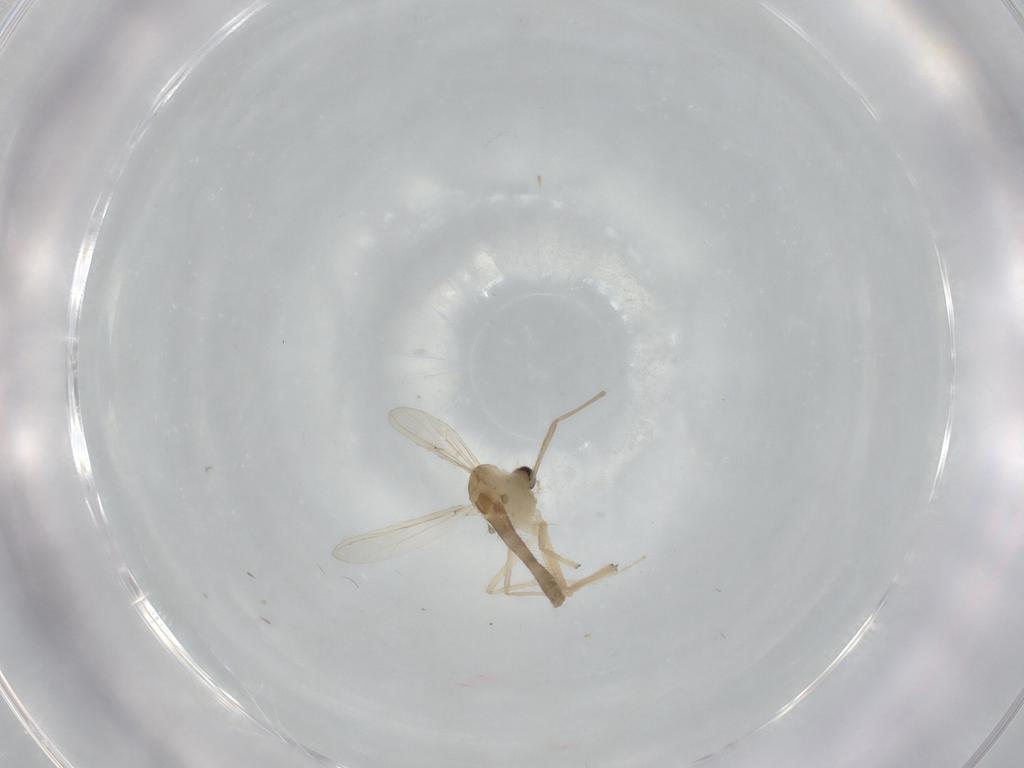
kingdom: Animalia
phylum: Arthropoda
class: Insecta
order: Diptera
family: Chironomidae
